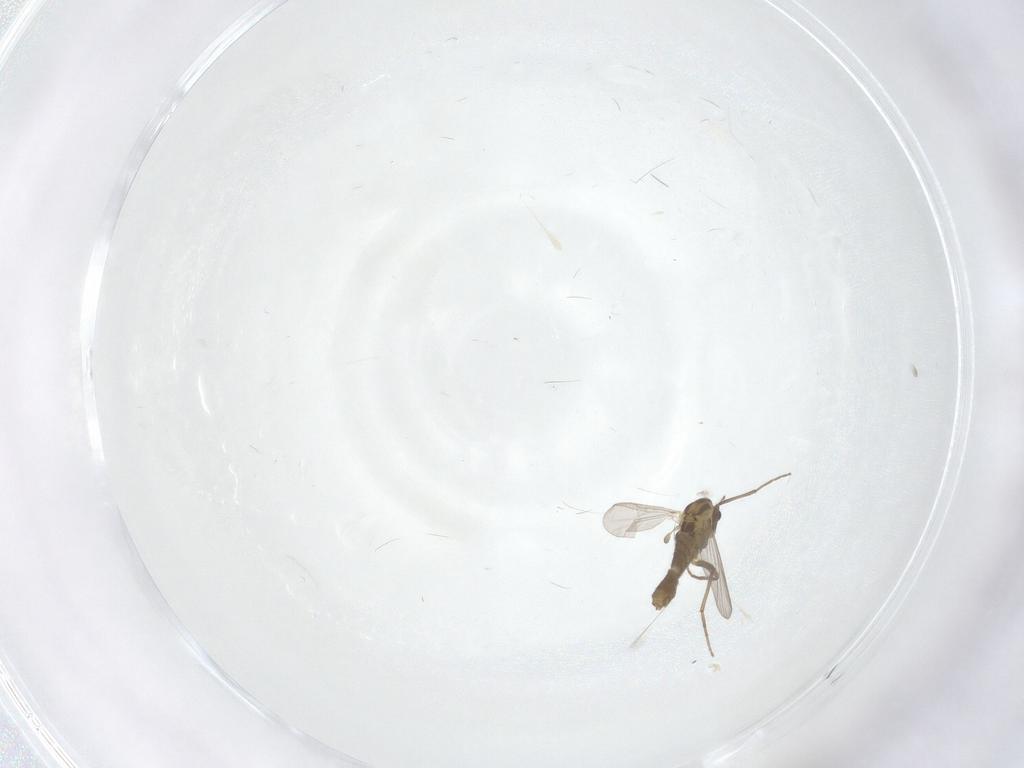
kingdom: Animalia
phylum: Arthropoda
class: Insecta
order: Diptera
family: Chironomidae
